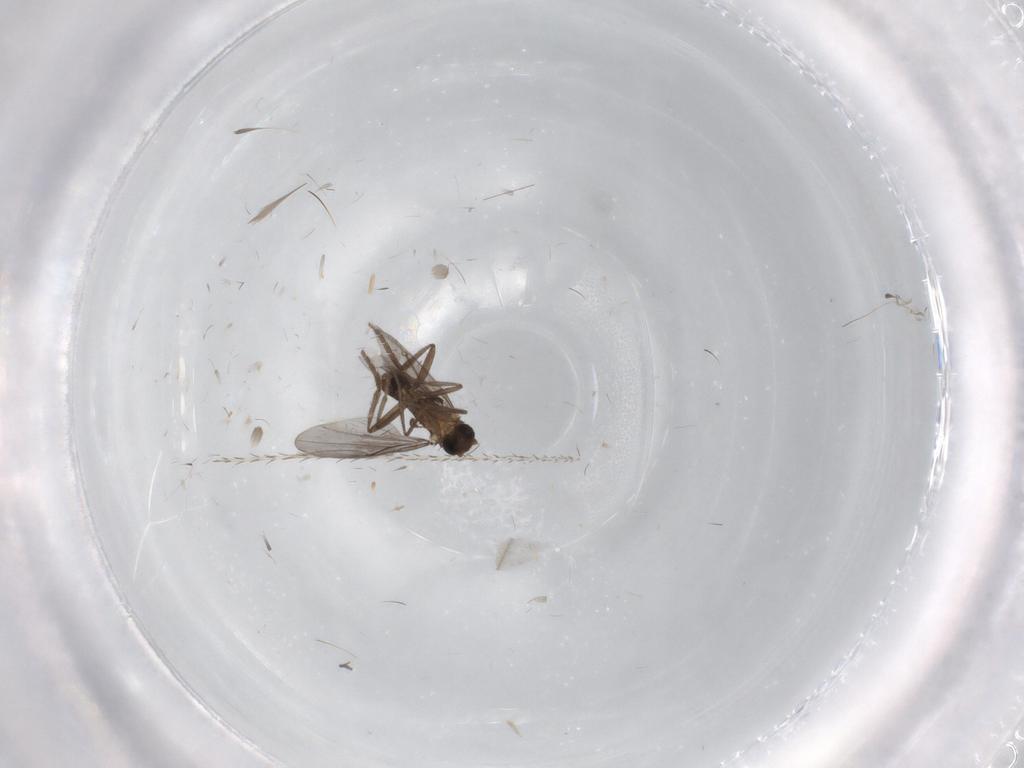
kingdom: Animalia
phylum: Arthropoda
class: Insecta
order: Diptera
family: Phoridae
